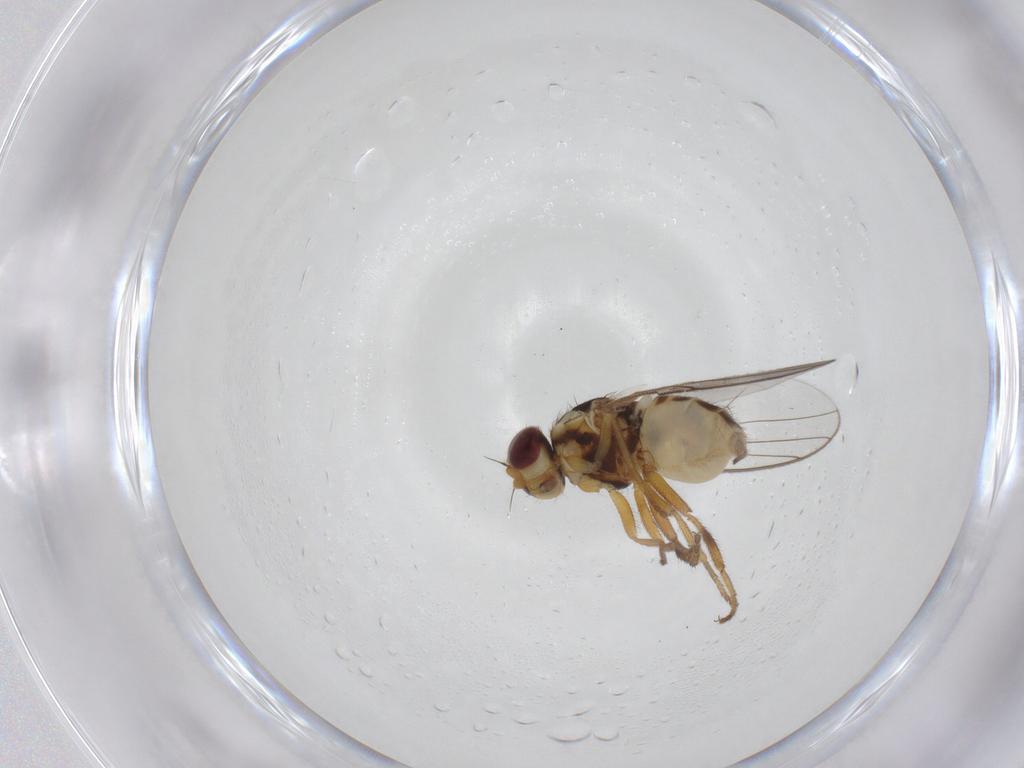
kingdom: Animalia
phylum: Arthropoda
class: Insecta
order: Diptera
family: Chloropidae
